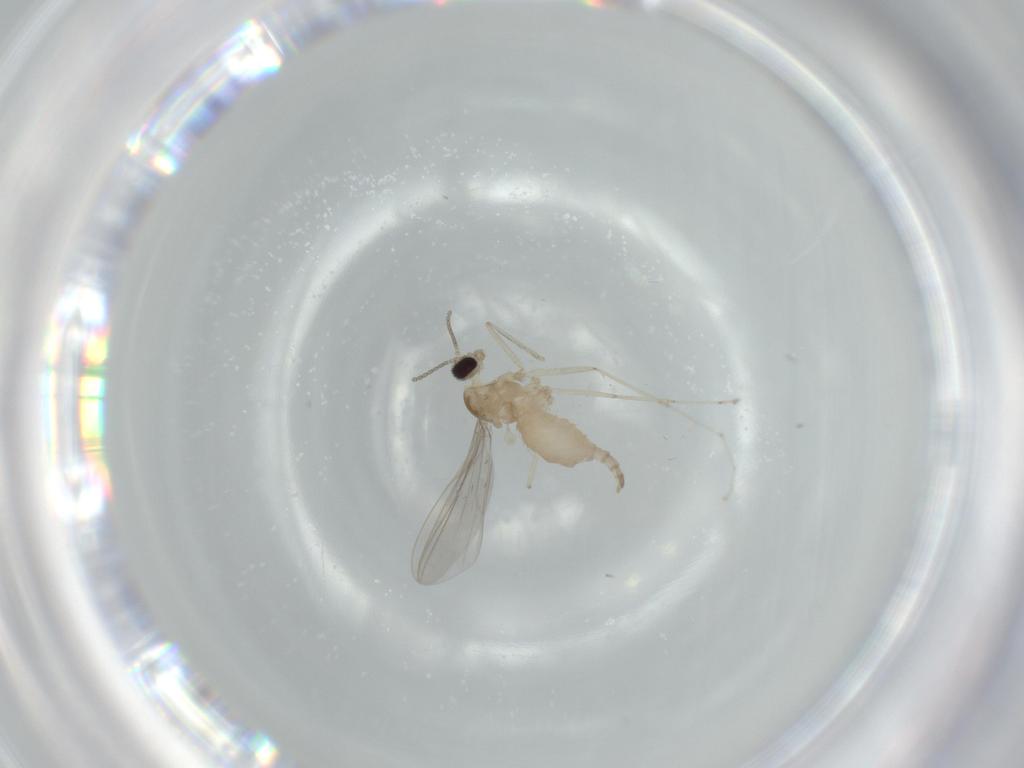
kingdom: Animalia
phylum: Arthropoda
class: Insecta
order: Diptera
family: Cecidomyiidae
